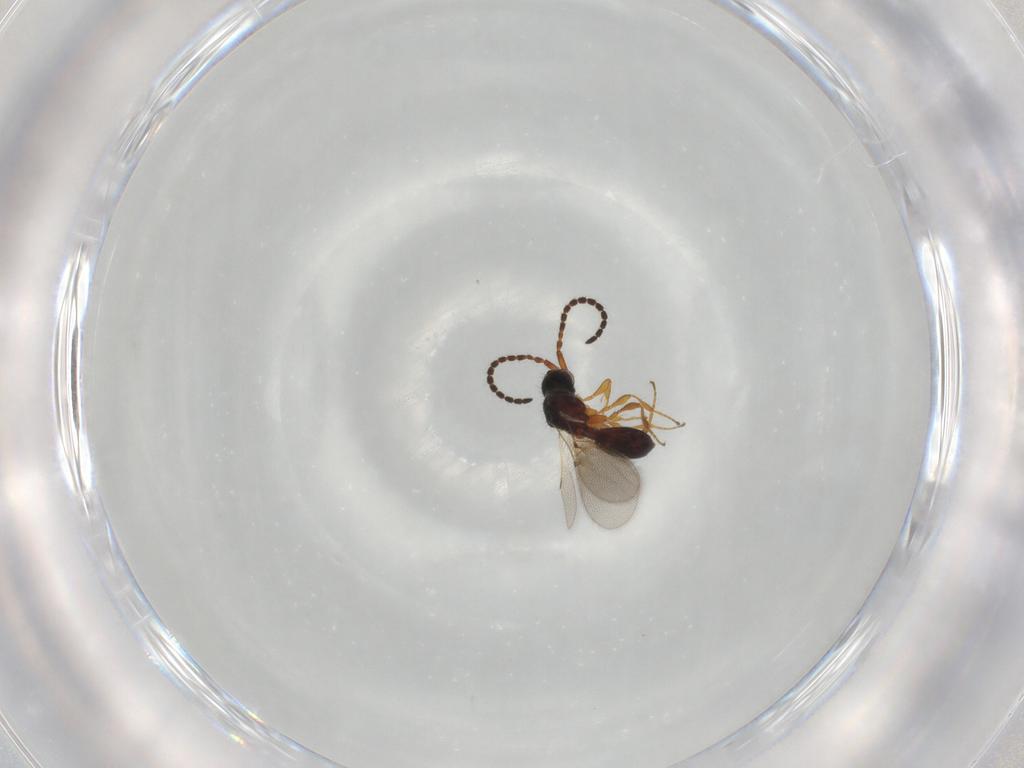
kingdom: Animalia
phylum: Arthropoda
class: Insecta
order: Hymenoptera
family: Diapriidae
